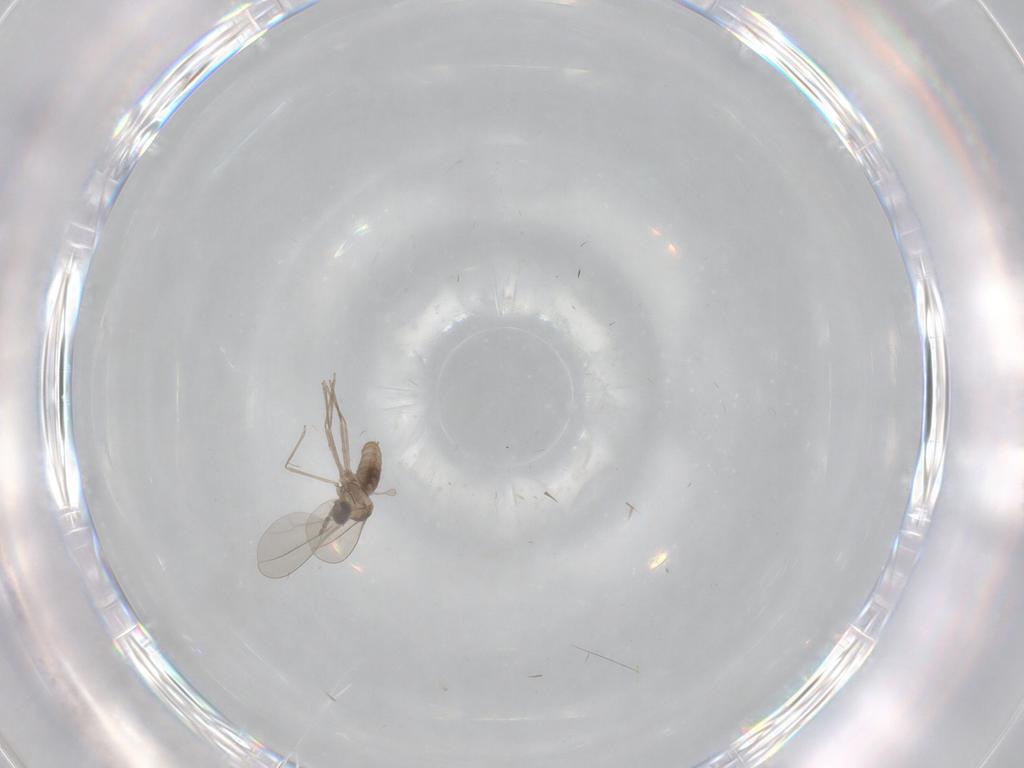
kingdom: Animalia
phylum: Arthropoda
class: Insecta
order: Diptera
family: Cecidomyiidae
